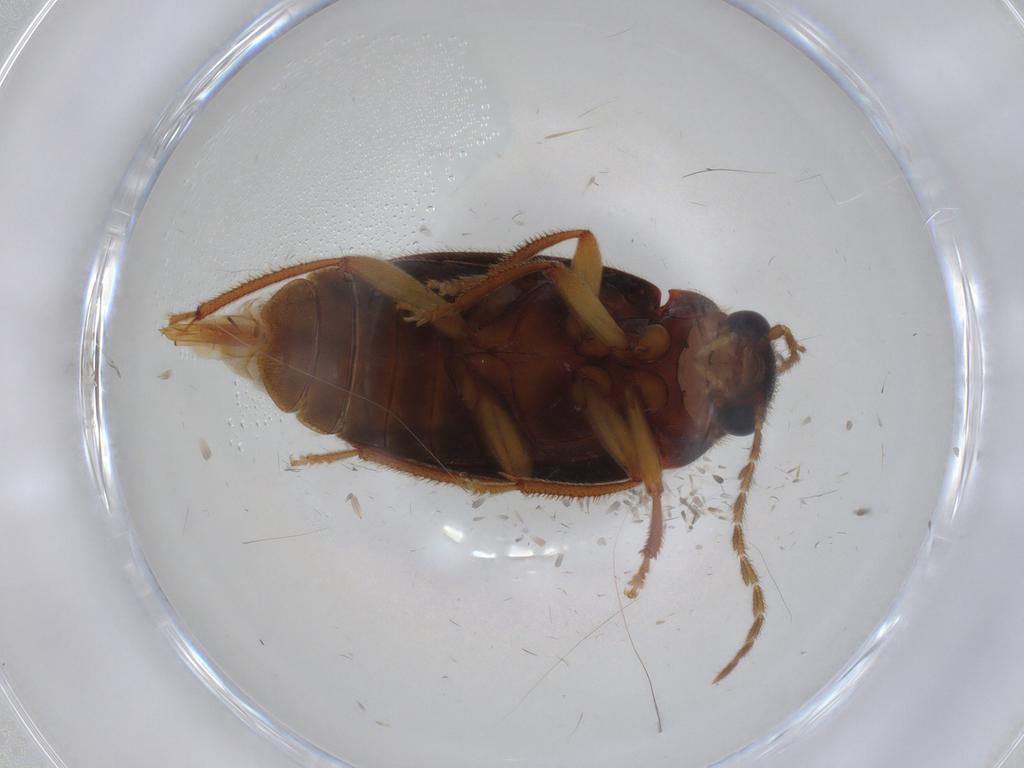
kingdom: Animalia
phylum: Arthropoda
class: Insecta
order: Coleoptera
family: Ptilodactylidae
